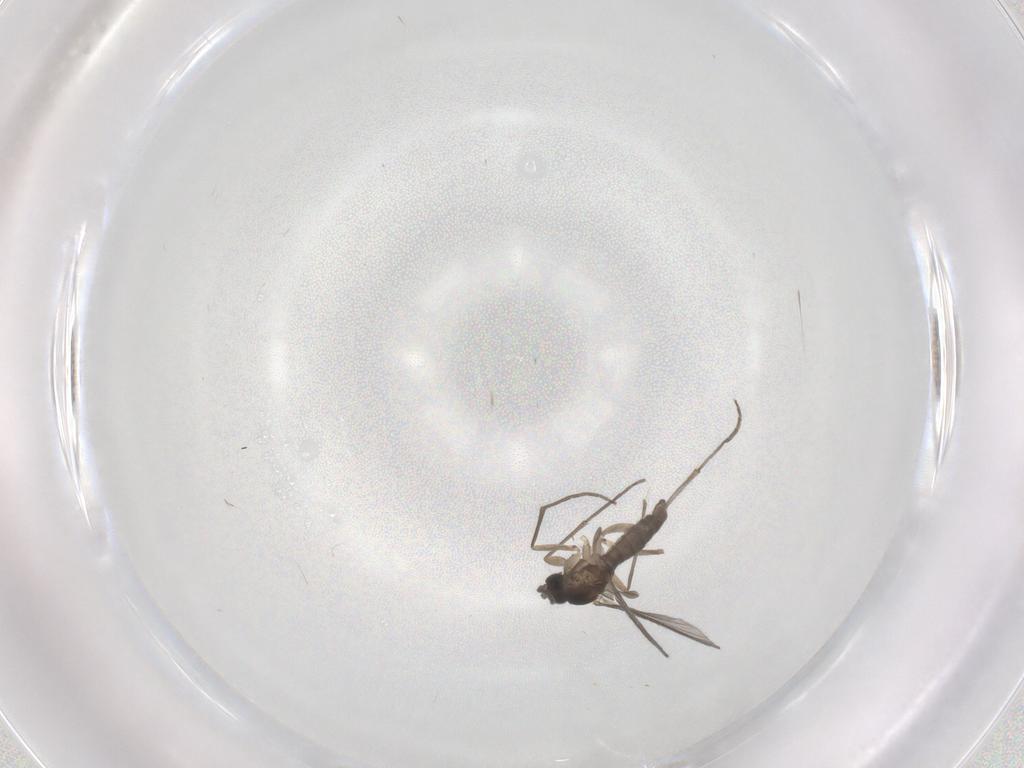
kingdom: Animalia
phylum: Arthropoda
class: Insecta
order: Diptera
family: Sciaridae
